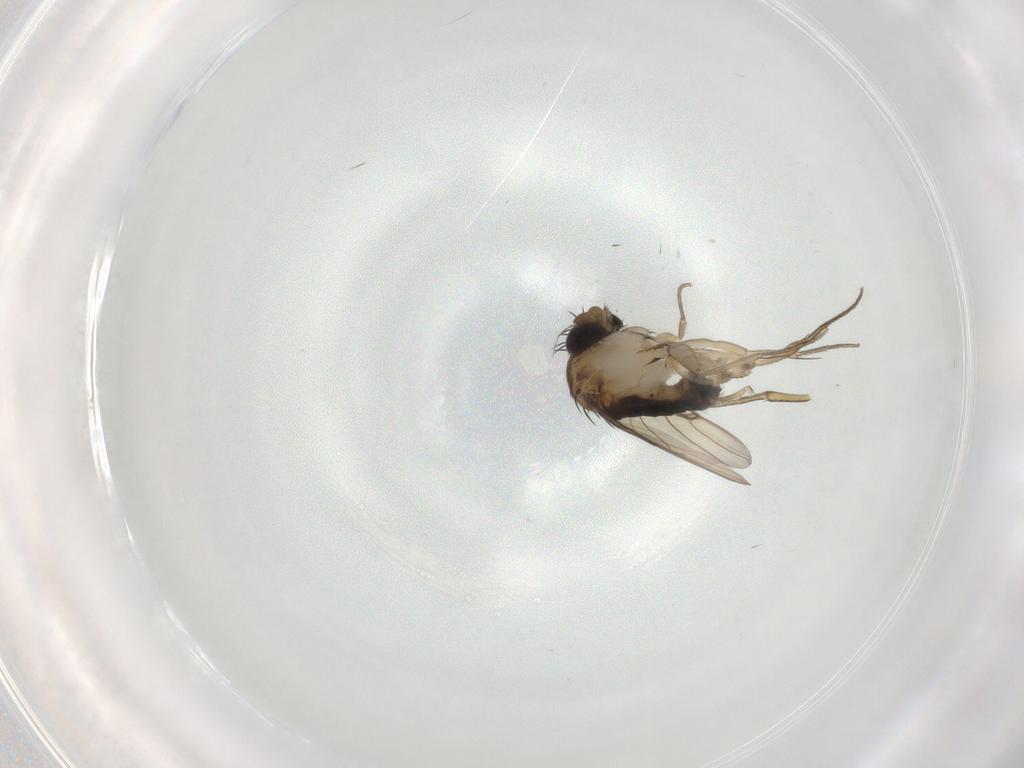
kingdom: Animalia
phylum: Arthropoda
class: Insecta
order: Diptera
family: Phoridae
